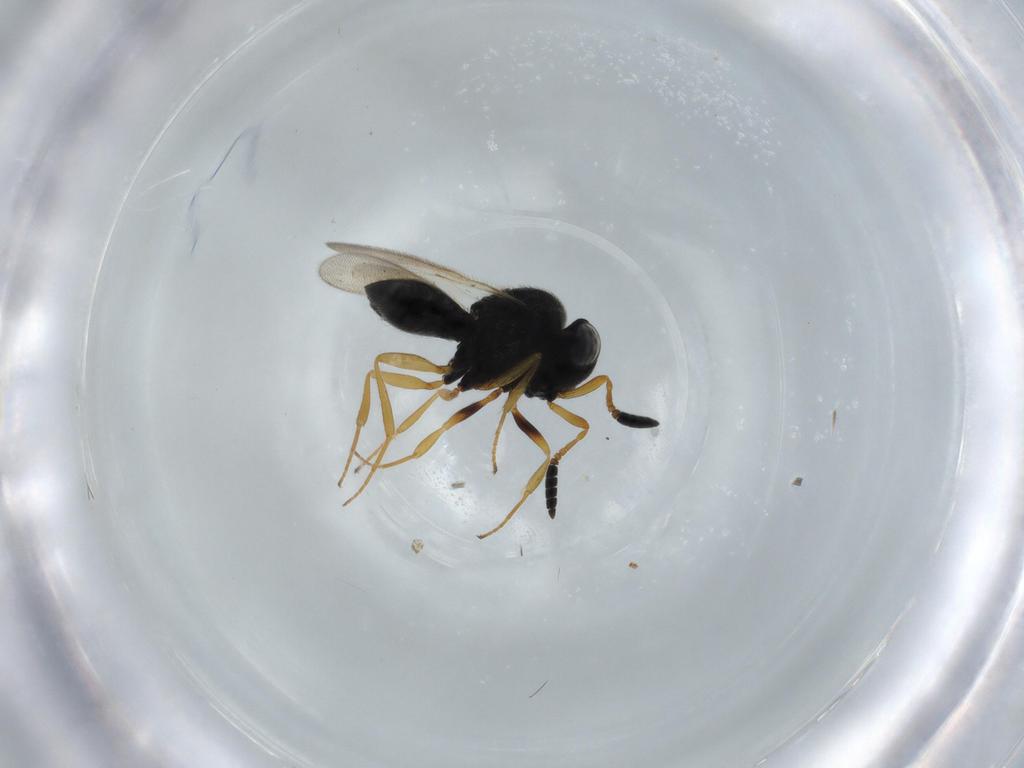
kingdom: Animalia
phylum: Arthropoda
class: Insecta
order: Hymenoptera
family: Scelionidae
